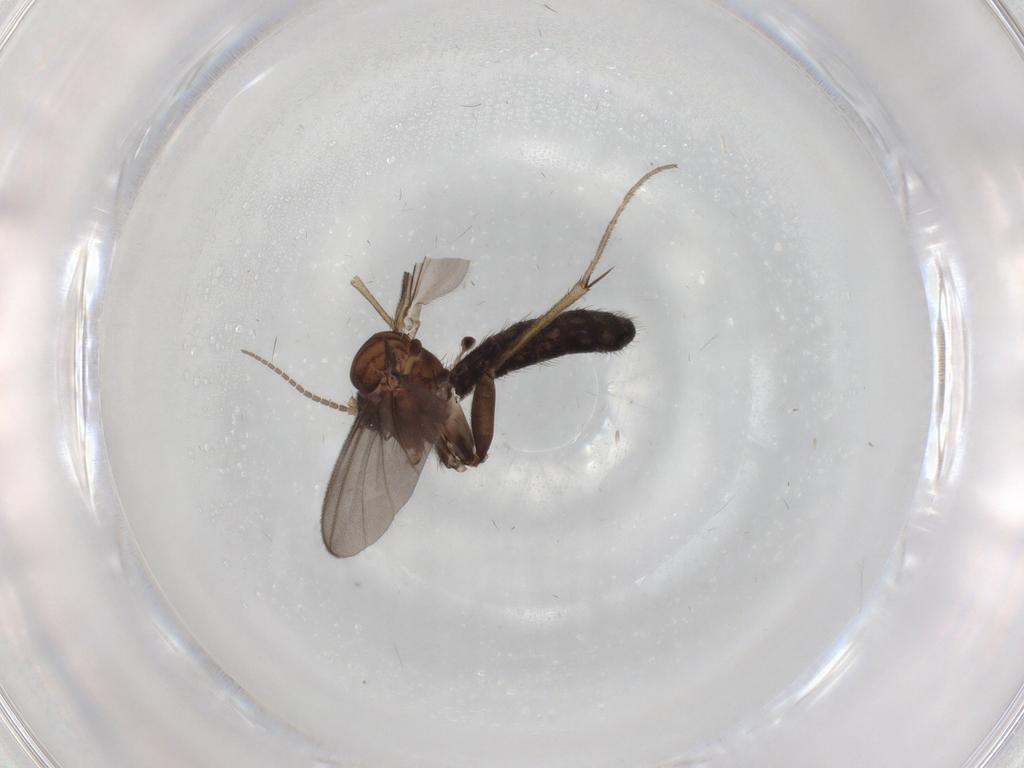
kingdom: Animalia
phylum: Arthropoda
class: Insecta
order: Diptera
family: Mycetophilidae
